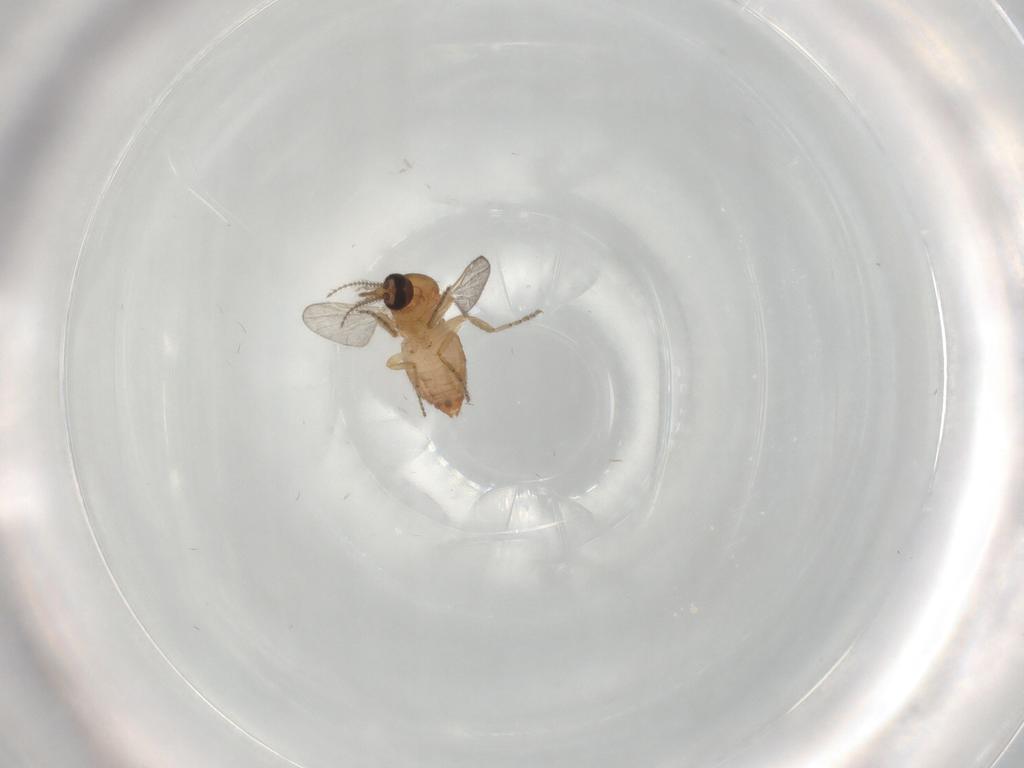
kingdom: Animalia
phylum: Arthropoda
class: Insecta
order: Diptera
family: Ceratopogonidae
